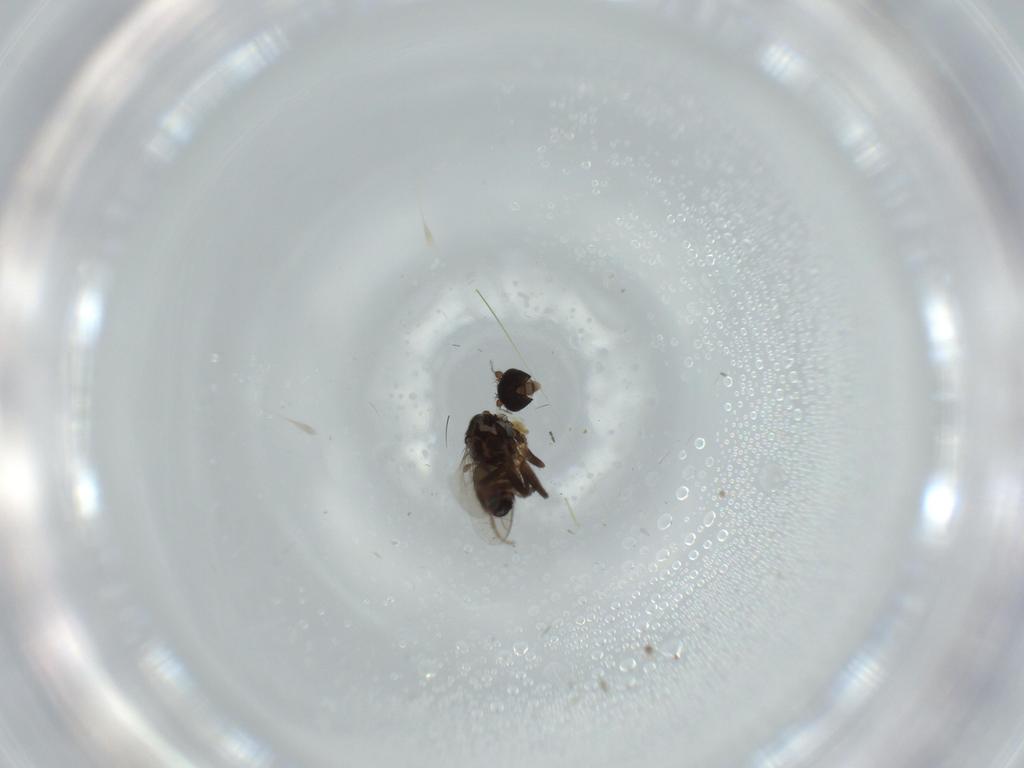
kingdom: Animalia
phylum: Arthropoda
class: Insecta
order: Diptera
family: Sphaeroceridae
